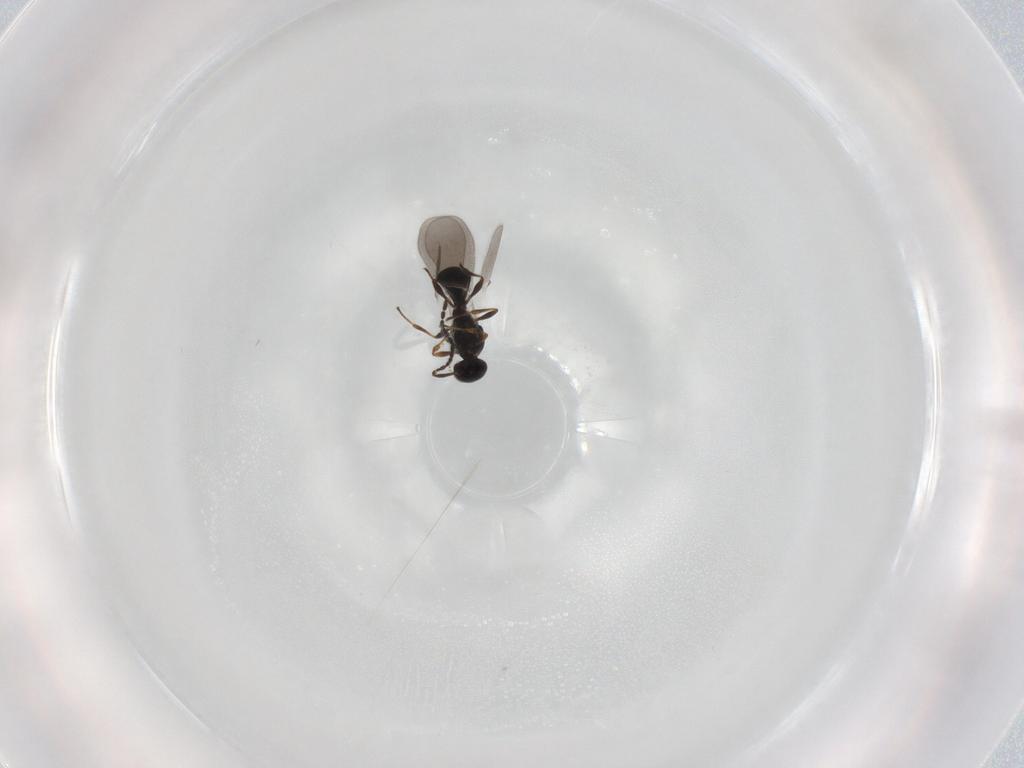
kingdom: Animalia
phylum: Arthropoda
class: Insecta
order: Hymenoptera
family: Platygastridae
